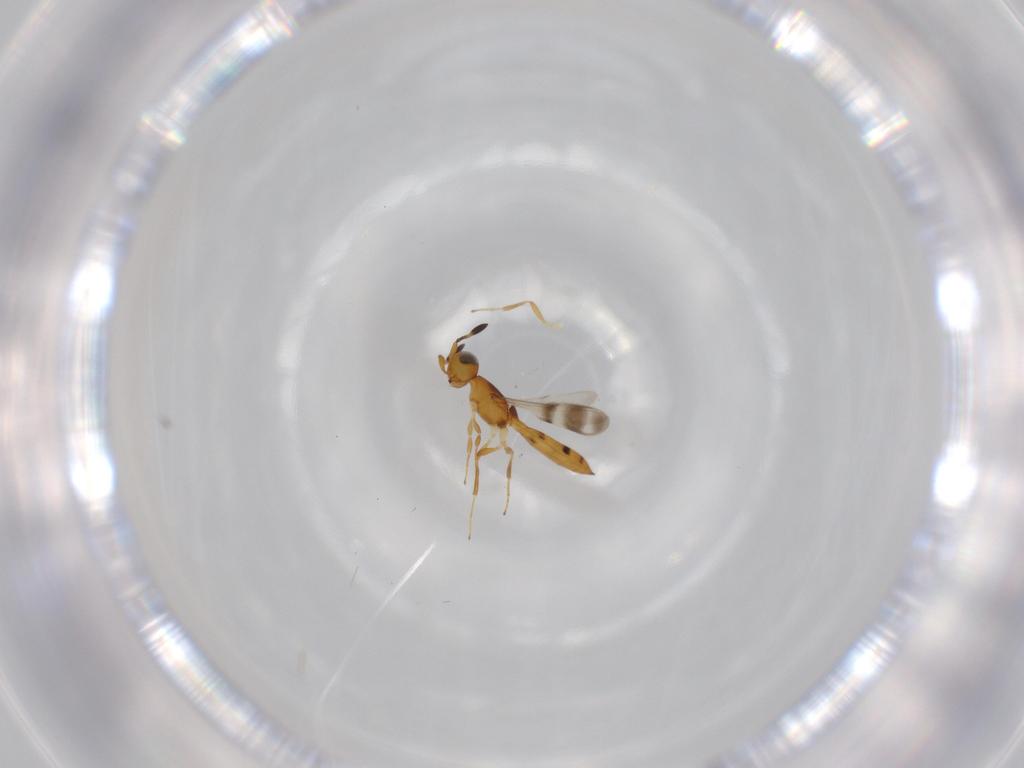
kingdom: Animalia
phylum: Arthropoda
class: Insecta
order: Hymenoptera
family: Scelionidae
